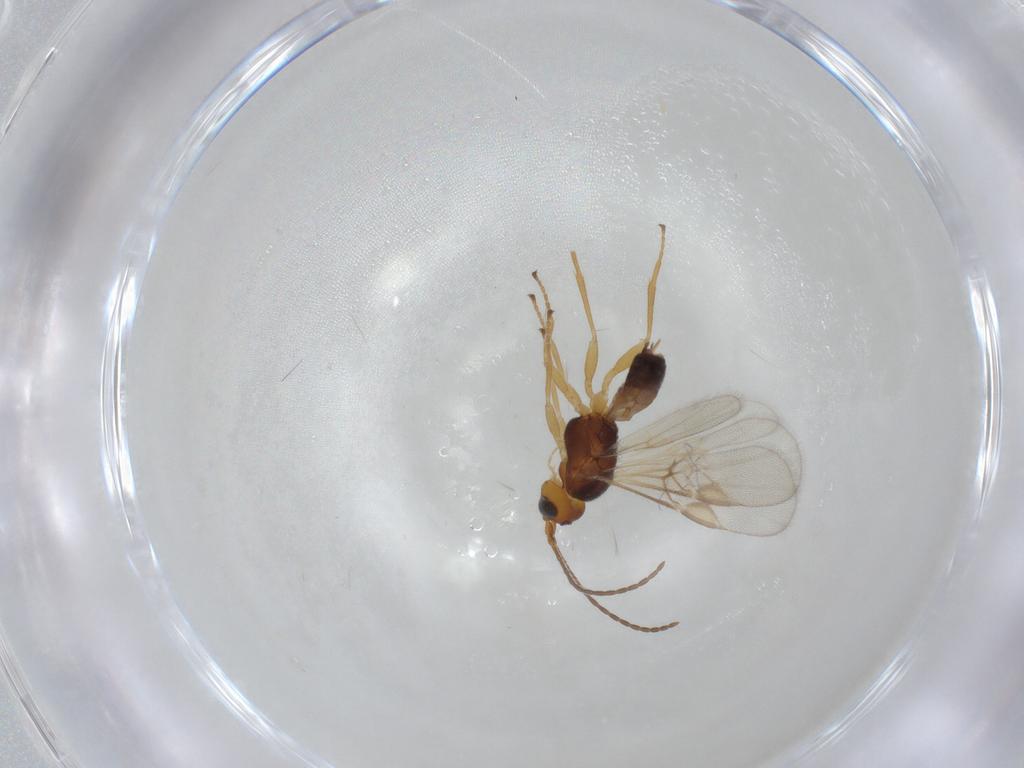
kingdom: Animalia
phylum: Arthropoda
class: Insecta
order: Hymenoptera
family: Braconidae
